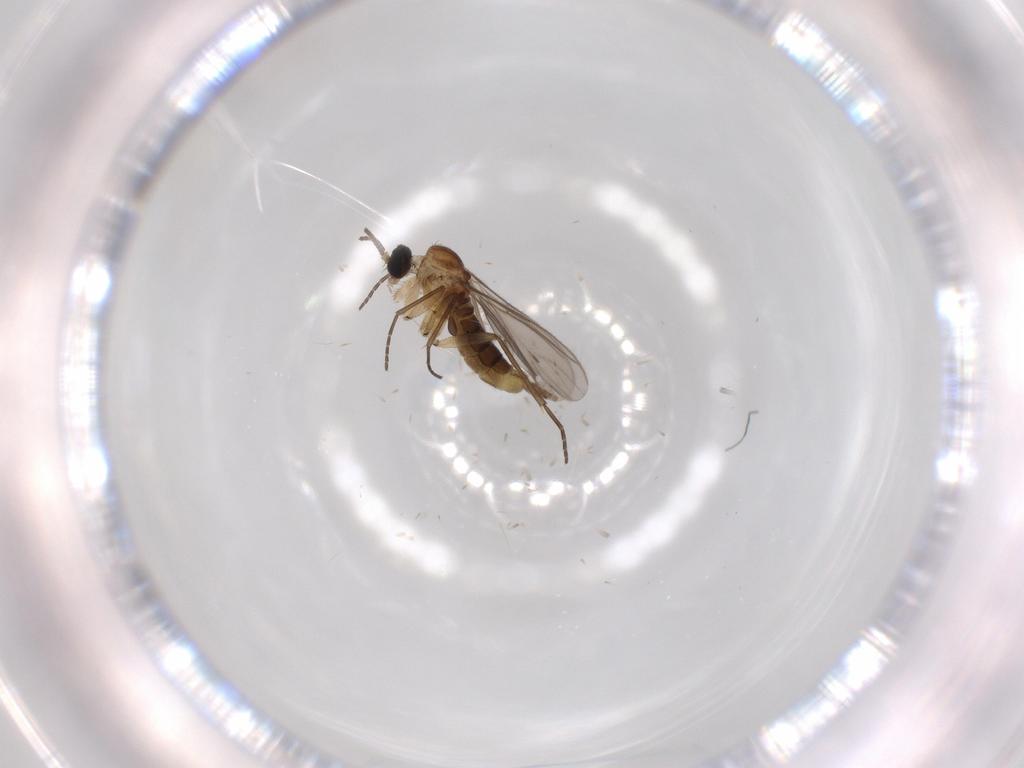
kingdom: Animalia
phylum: Arthropoda
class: Insecta
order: Diptera
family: Sciaridae
